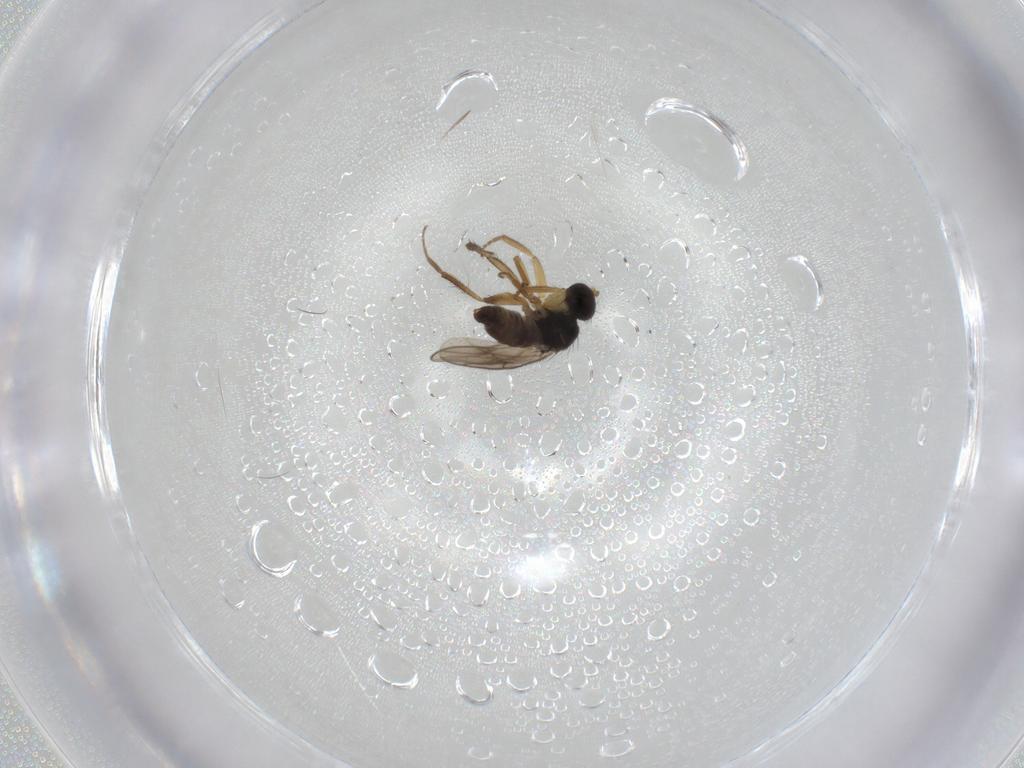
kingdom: Animalia
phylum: Arthropoda
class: Insecta
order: Diptera
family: Hybotidae
